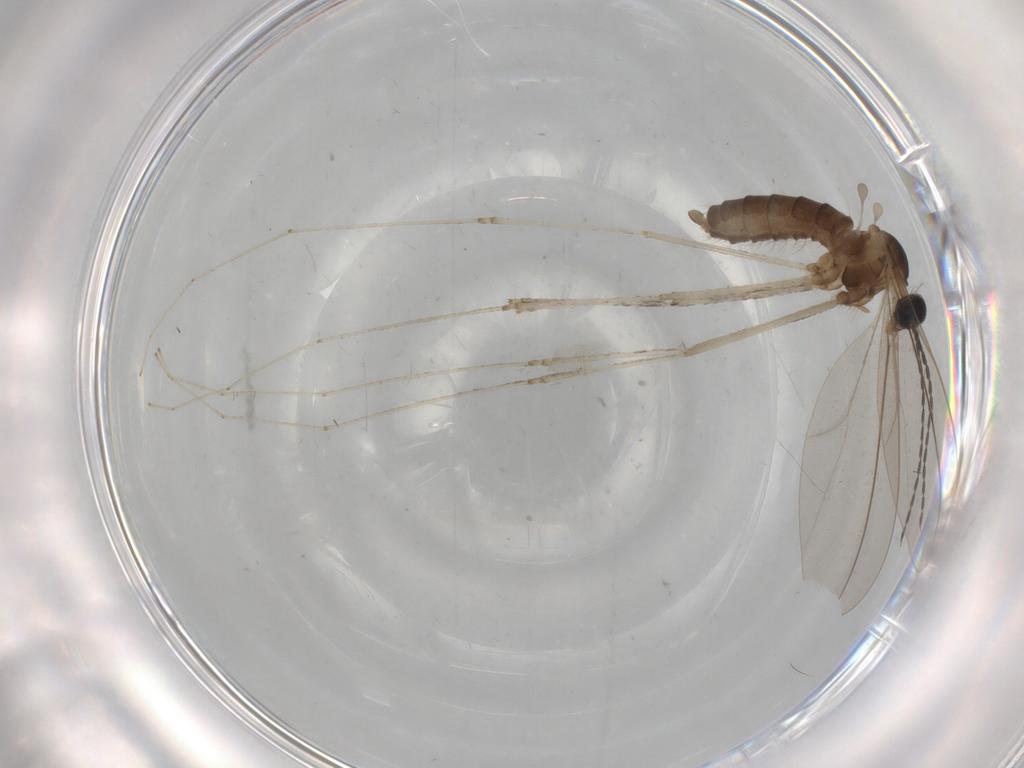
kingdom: Animalia
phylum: Arthropoda
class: Insecta
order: Diptera
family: Cecidomyiidae
